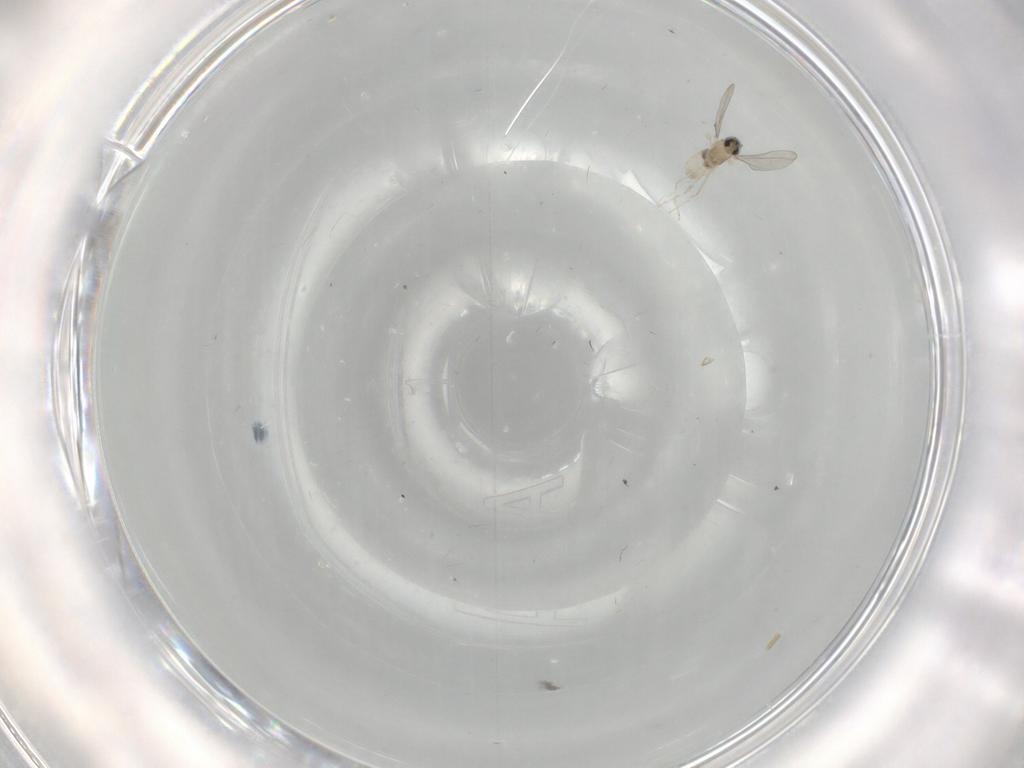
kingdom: Animalia
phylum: Arthropoda
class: Insecta
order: Diptera
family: Cecidomyiidae
